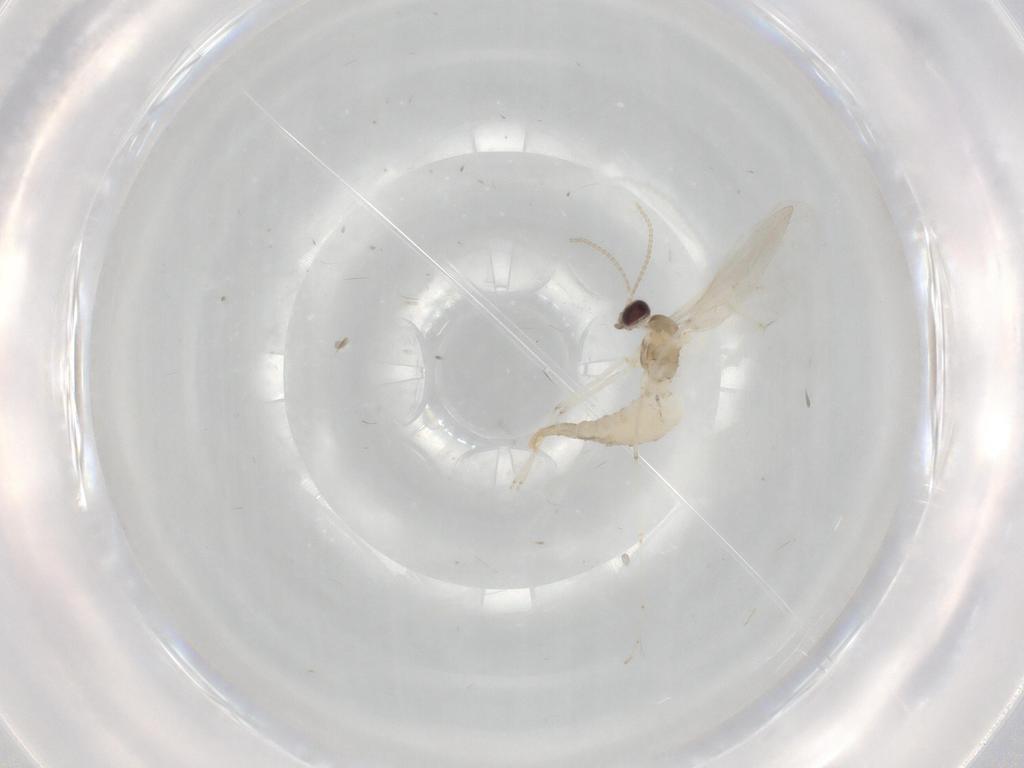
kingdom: Animalia
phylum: Arthropoda
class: Insecta
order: Diptera
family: Cecidomyiidae
